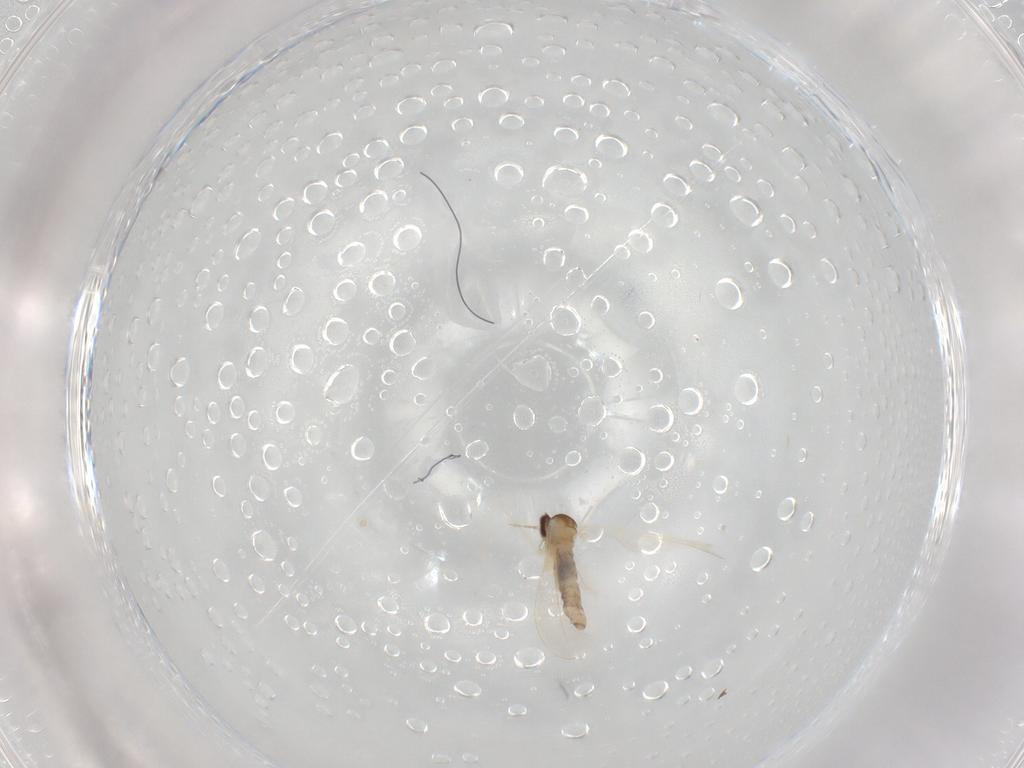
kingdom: Animalia
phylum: Arthropoda
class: Insecta
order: Diptera
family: Cecidomyiidae
